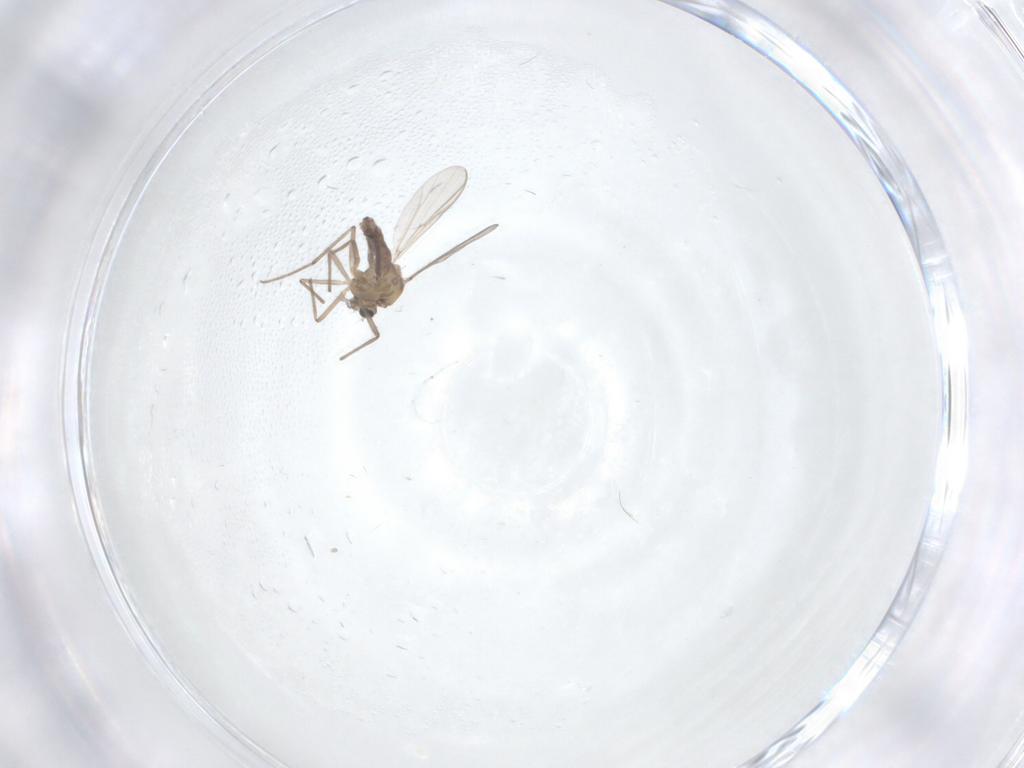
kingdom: Animalia
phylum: Arthropoda
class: Insecta
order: Diptera
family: Chironomidae
